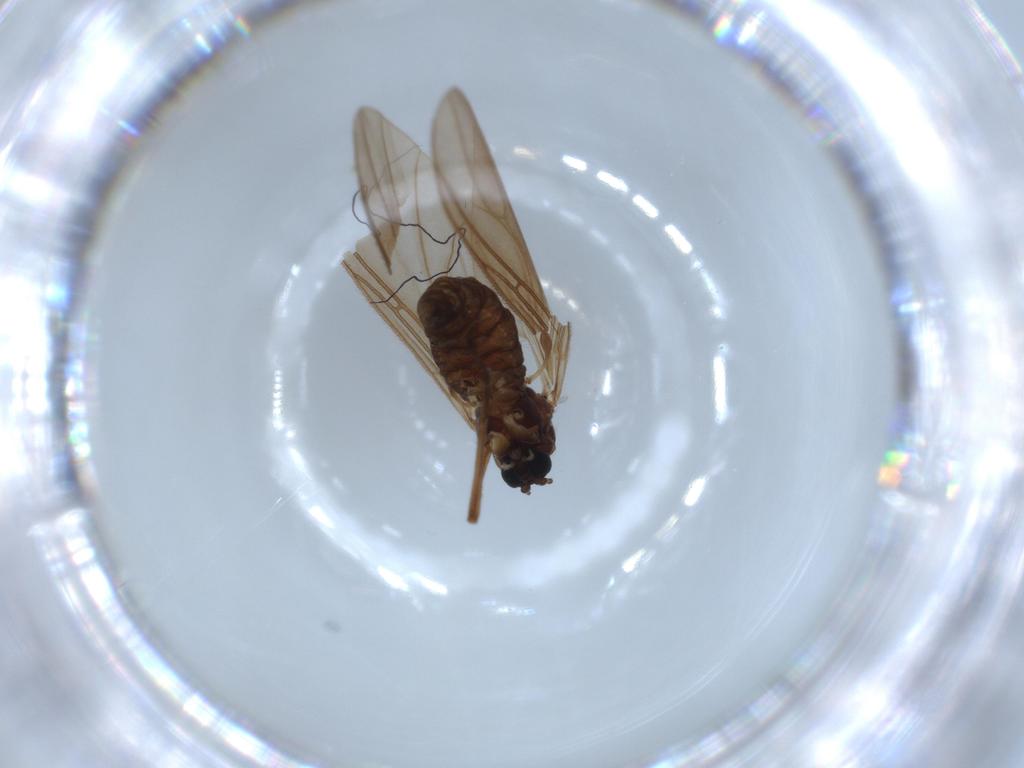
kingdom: Animalia
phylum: Arthropoda
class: Insecta
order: Diptera
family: Sciaridae
